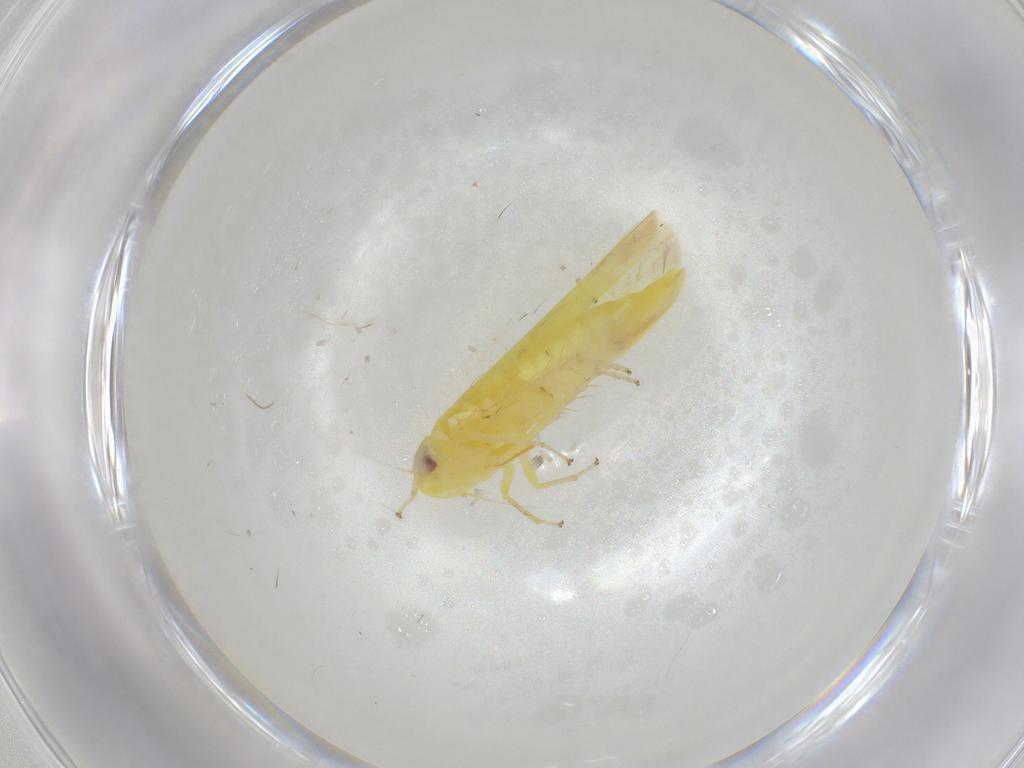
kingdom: Animalia
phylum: Arthropoda
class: Insecta
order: Hemiptera
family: Cicadellidae
